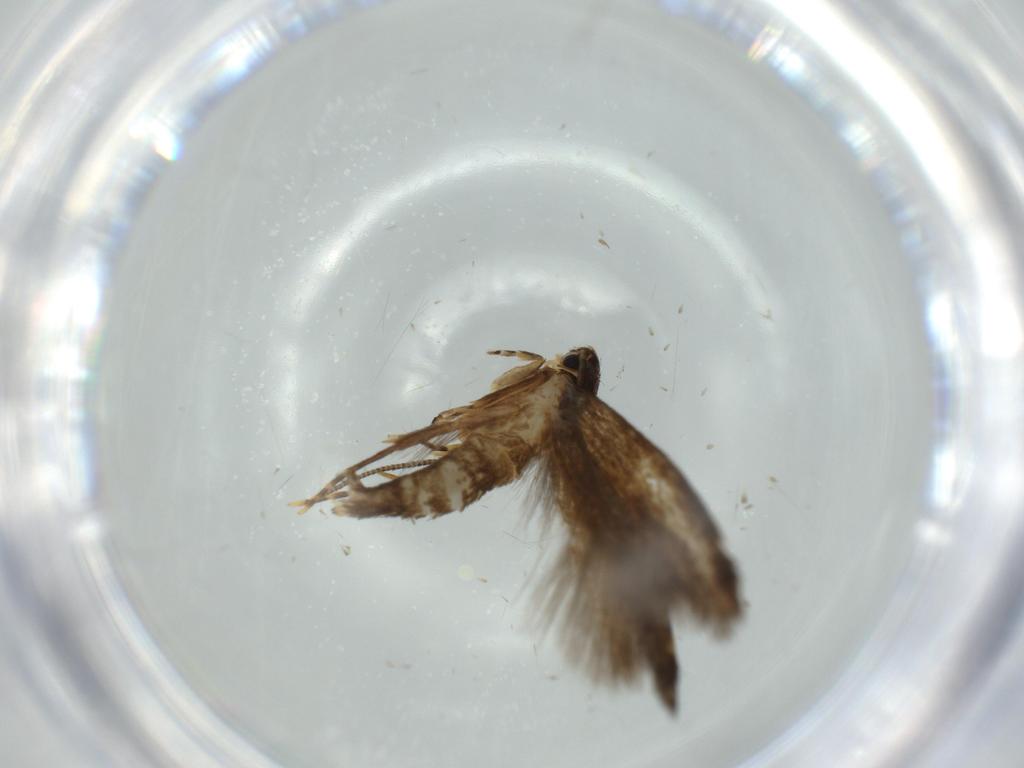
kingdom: Animalia
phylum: Arthropoda
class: Insecta
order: Lepidoptera
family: Tineidae
